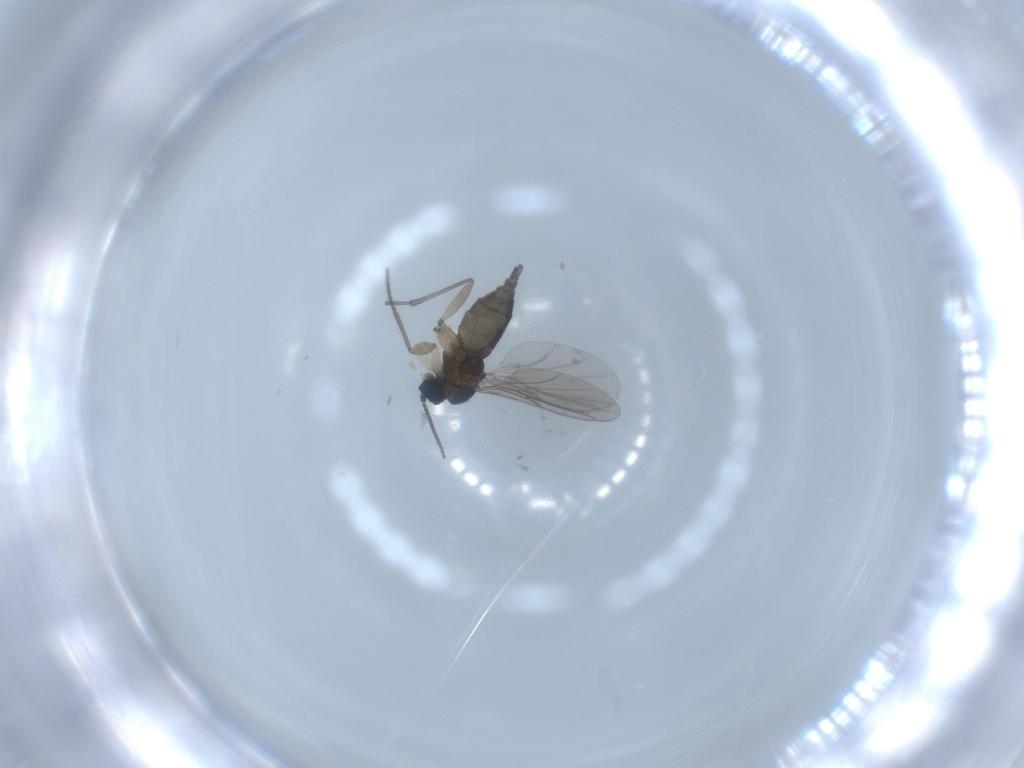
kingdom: Animalia
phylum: Arthropoda
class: Insecta
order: Diptera
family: Sciaridae
